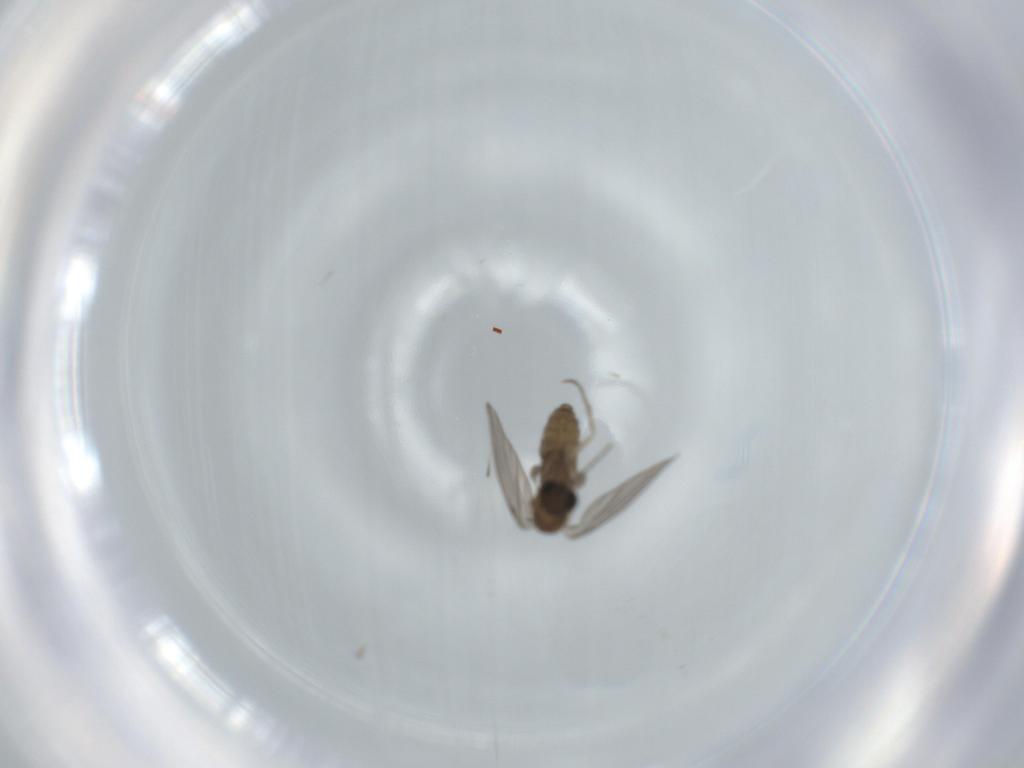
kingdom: Animalia
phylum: Arthropoda
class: Insecta
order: Diptera
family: Psychodidae
